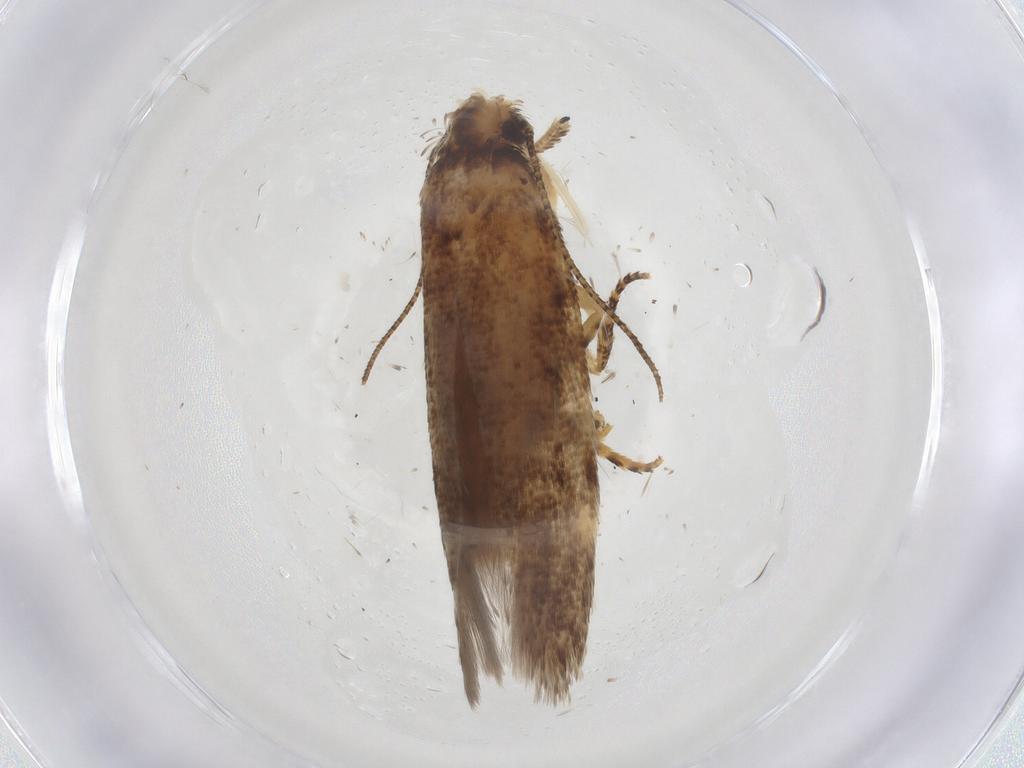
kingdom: Animalia
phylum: Arthropoda
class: Insecta
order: Lepidoptera
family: Gelechiidae
